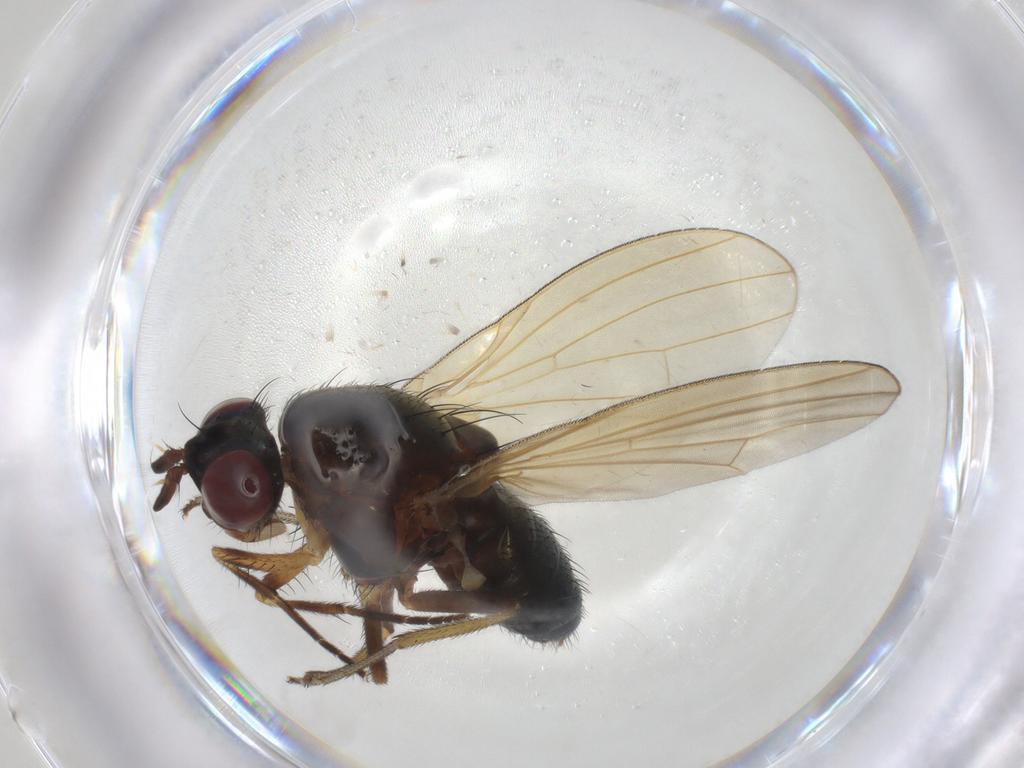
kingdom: Animalia
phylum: Arthropoda
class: Insecta
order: Diptera
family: Lauxaniidae
